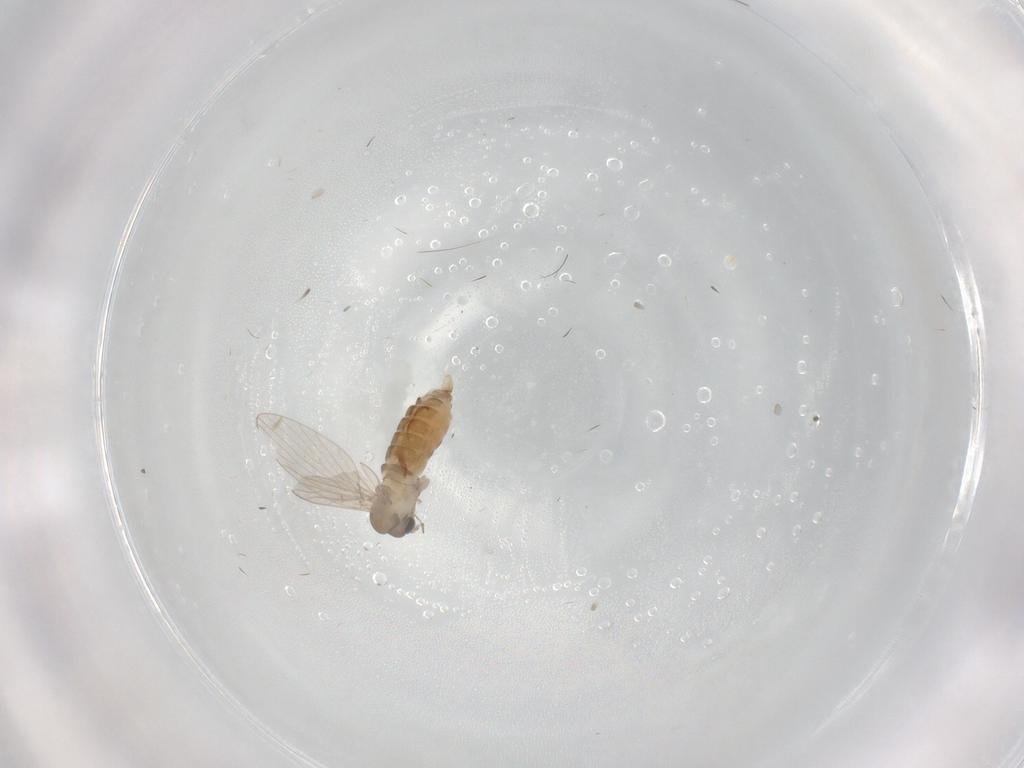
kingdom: Animalia
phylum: Arthropoda
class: Insecta
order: Diptera
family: Psychodidae
